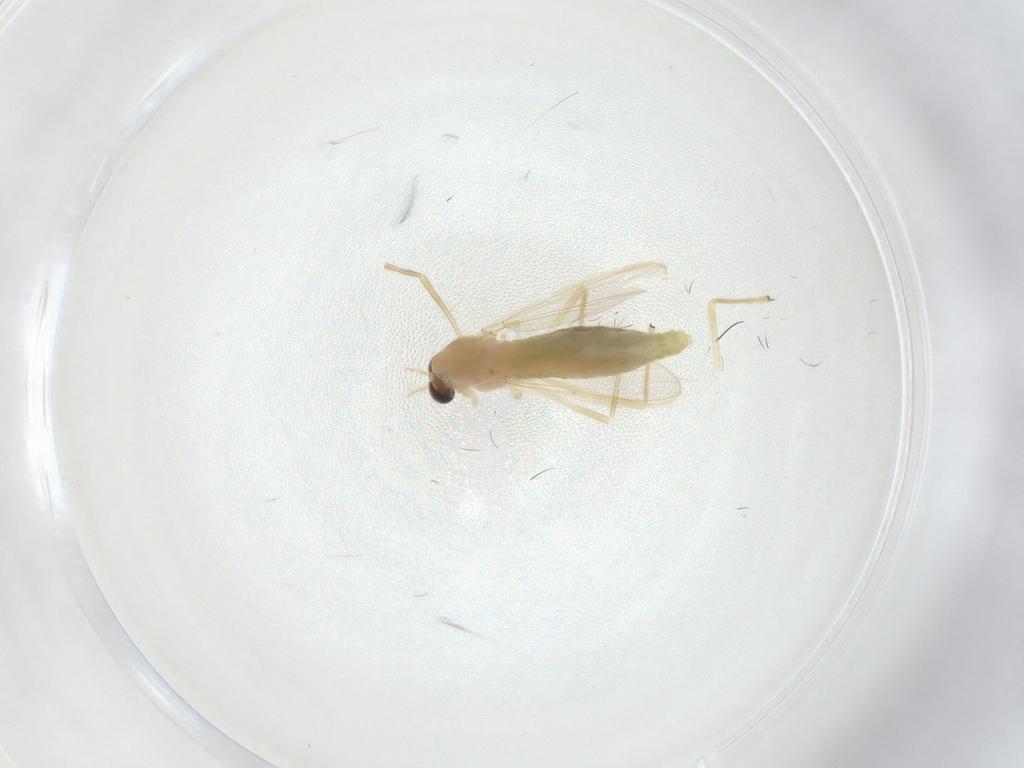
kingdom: Animalia
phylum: Arthropoda
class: Insecta
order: Diptera
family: Chironomidae
